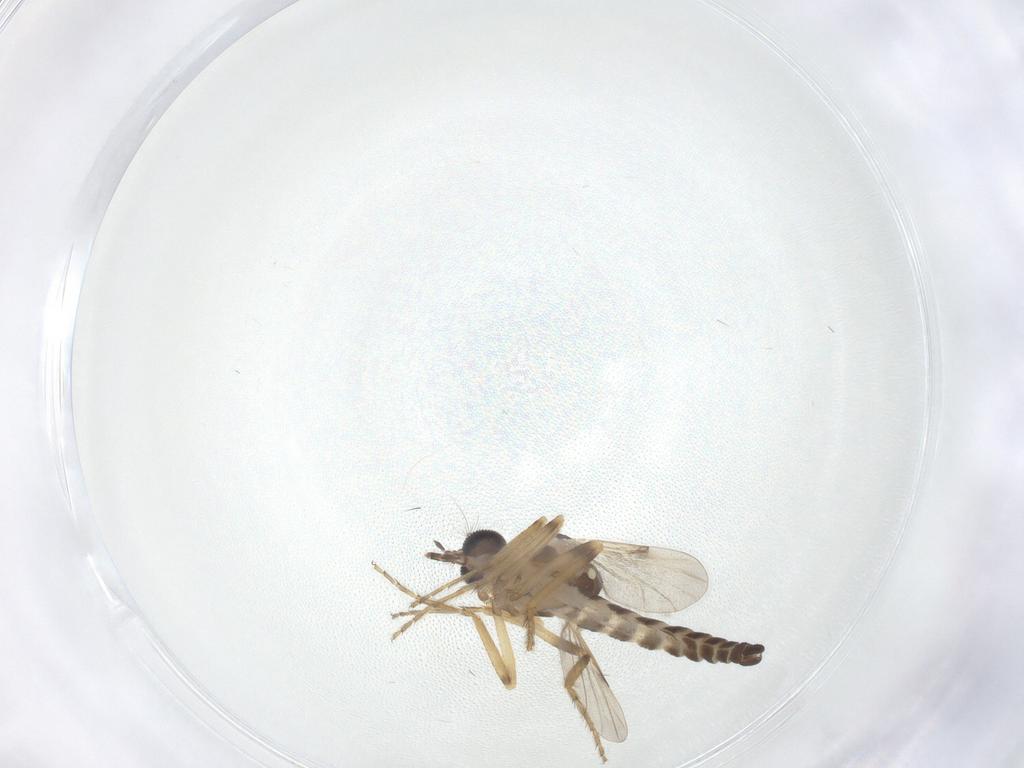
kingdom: Animalia
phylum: Arthropoda
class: Insecta
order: Diptera
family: Ceratopogonidae
